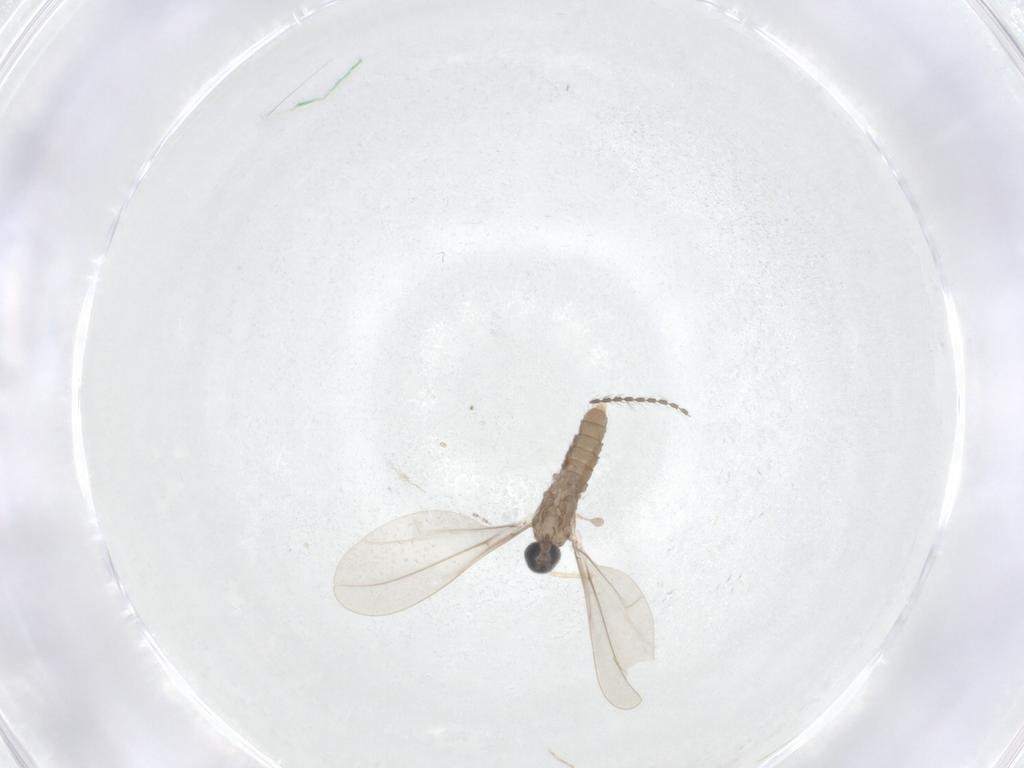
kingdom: Animalia
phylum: Arthropoda
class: Insecta
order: Diptera
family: Cecidomyiidae
